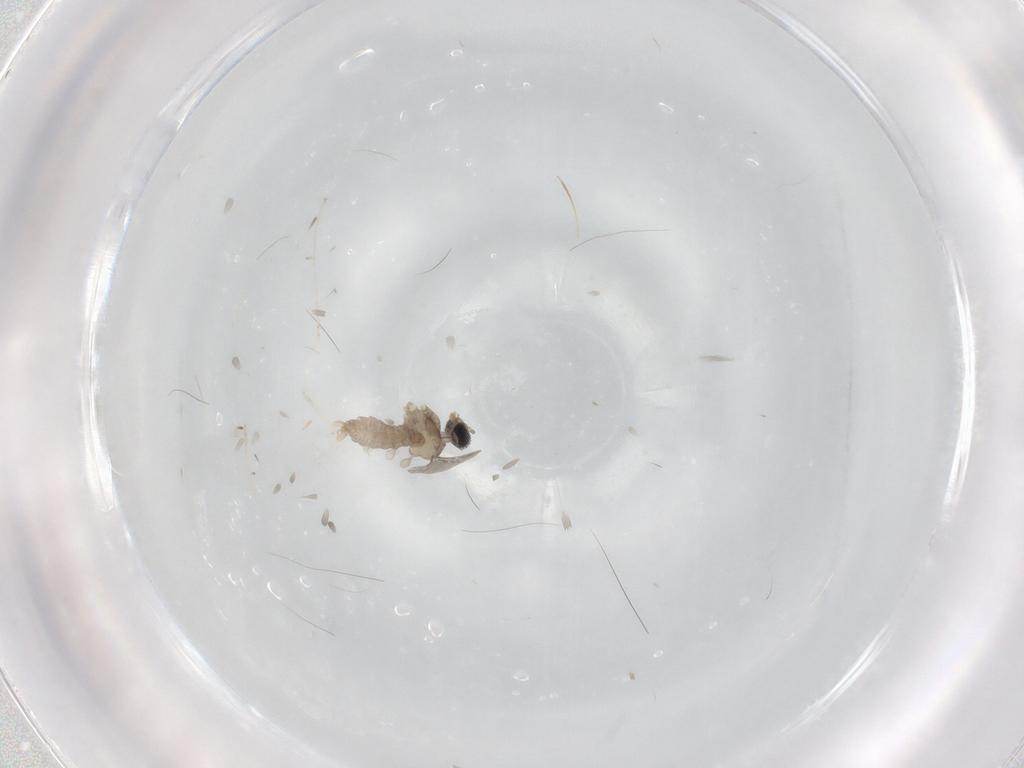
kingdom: Animalia
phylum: Arthropoda
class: Insecta
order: Diptera
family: Cecidomyiidae
